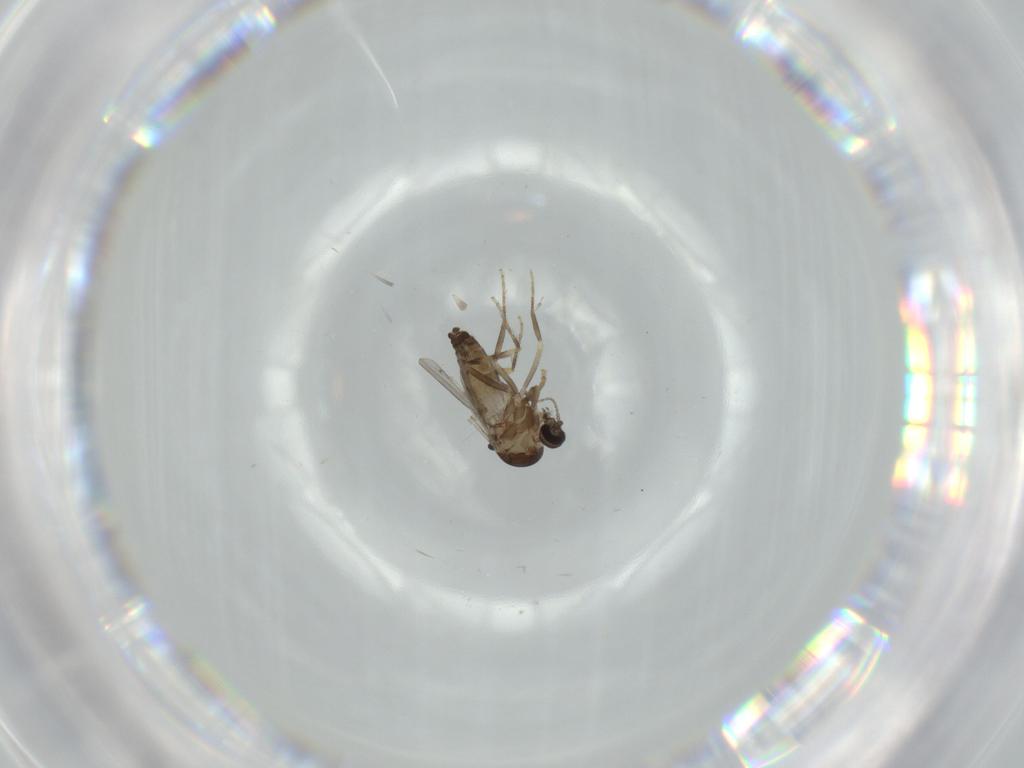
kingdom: Animalia
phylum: Arthropoda
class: Insecta
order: Diptera
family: Ceratopogonidae
